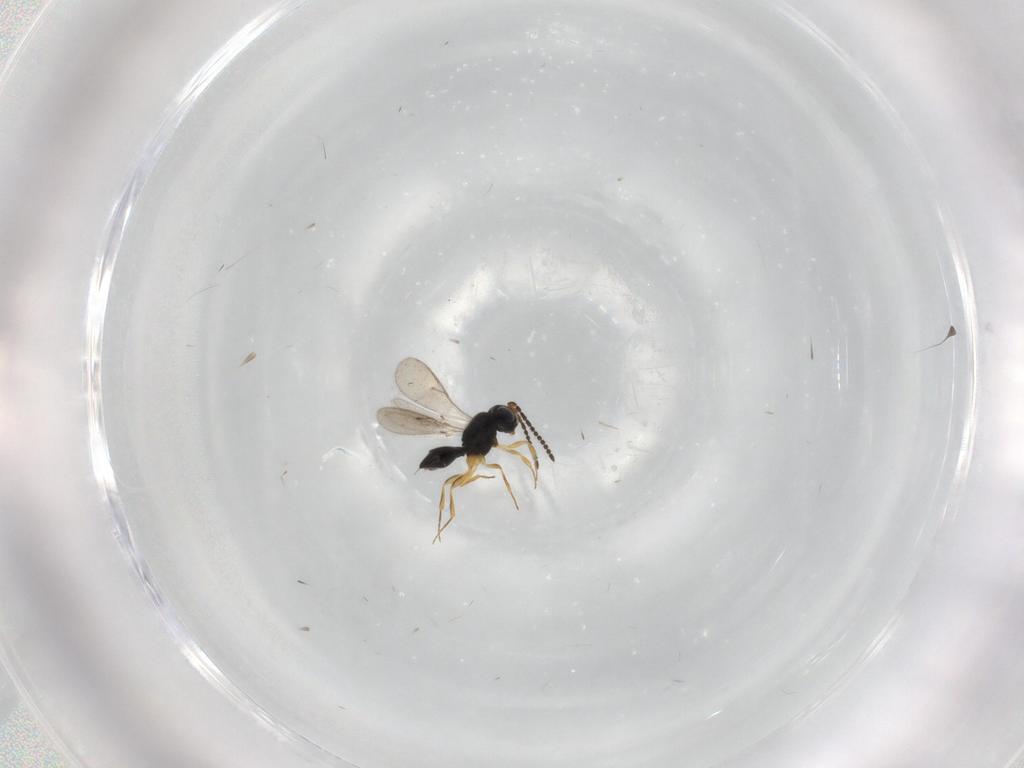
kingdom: Animalia
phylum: Arthropoda
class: Insecta
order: Hymenoptera
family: Scelionidae
